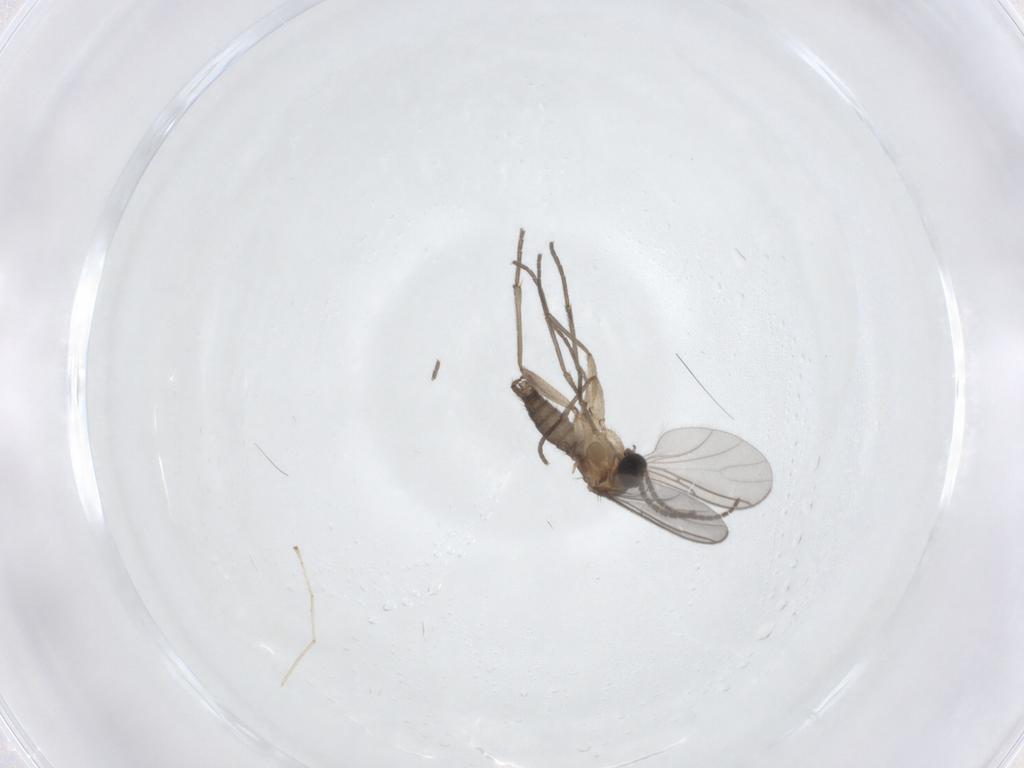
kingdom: Animalia
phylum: Arthropoda
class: Insecta
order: Diptera
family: Sciaridae
